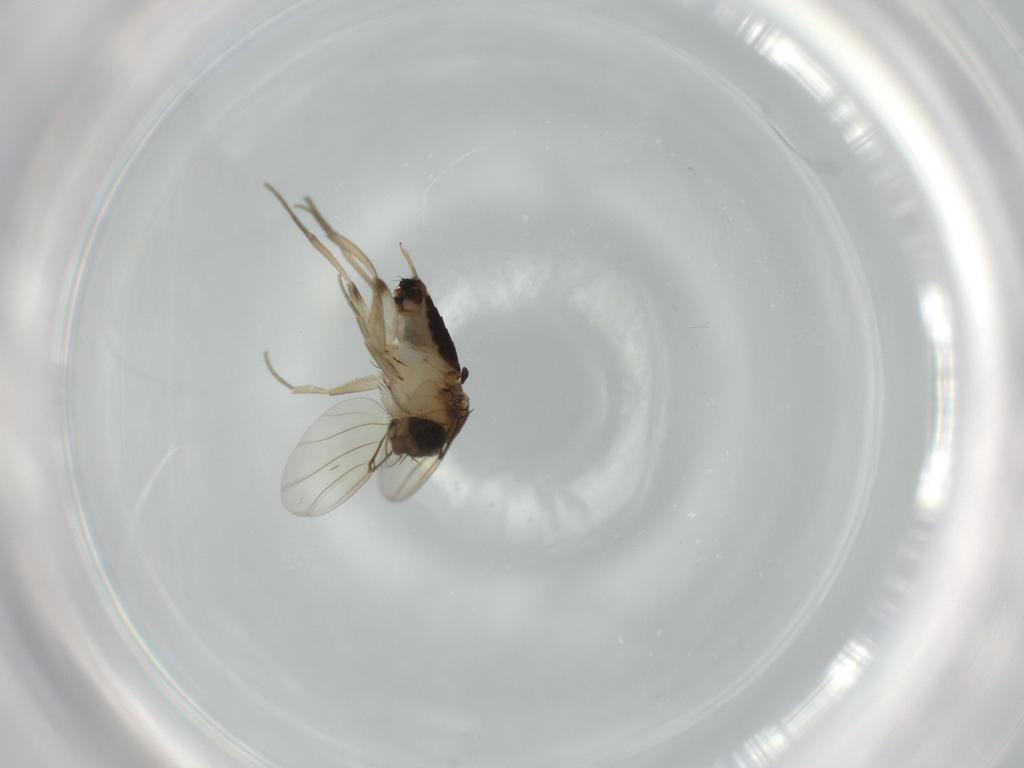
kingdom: Animalia
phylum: Arthropoda
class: Insecta
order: Diptera
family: Phoridae
